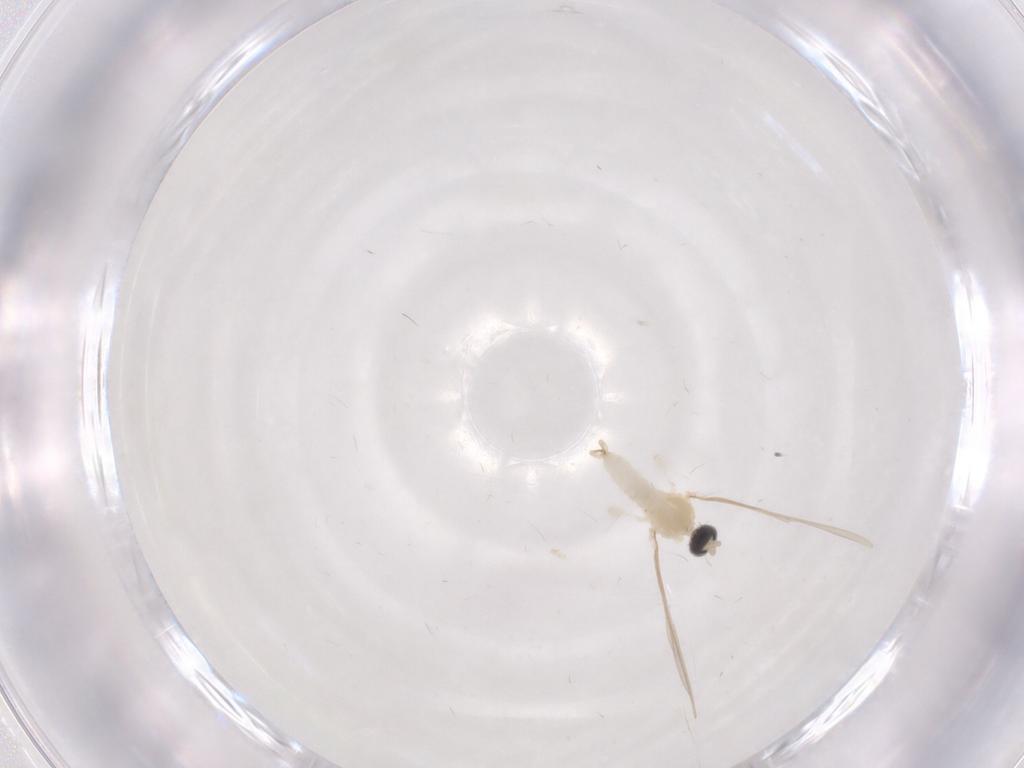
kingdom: Animalia
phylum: Arthropoda
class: Insecta
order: Diptera
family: Cecidomyiidae
